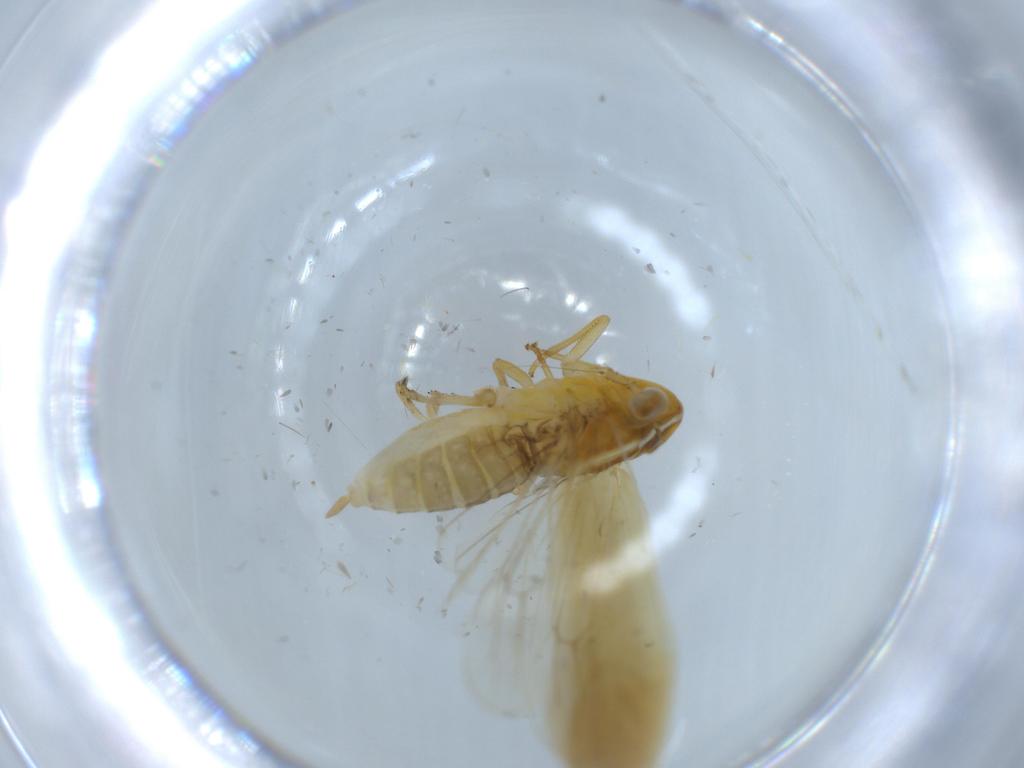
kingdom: Animalia
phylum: Arthropoda
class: Insecta
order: Hemiptera
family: Delphacidae
